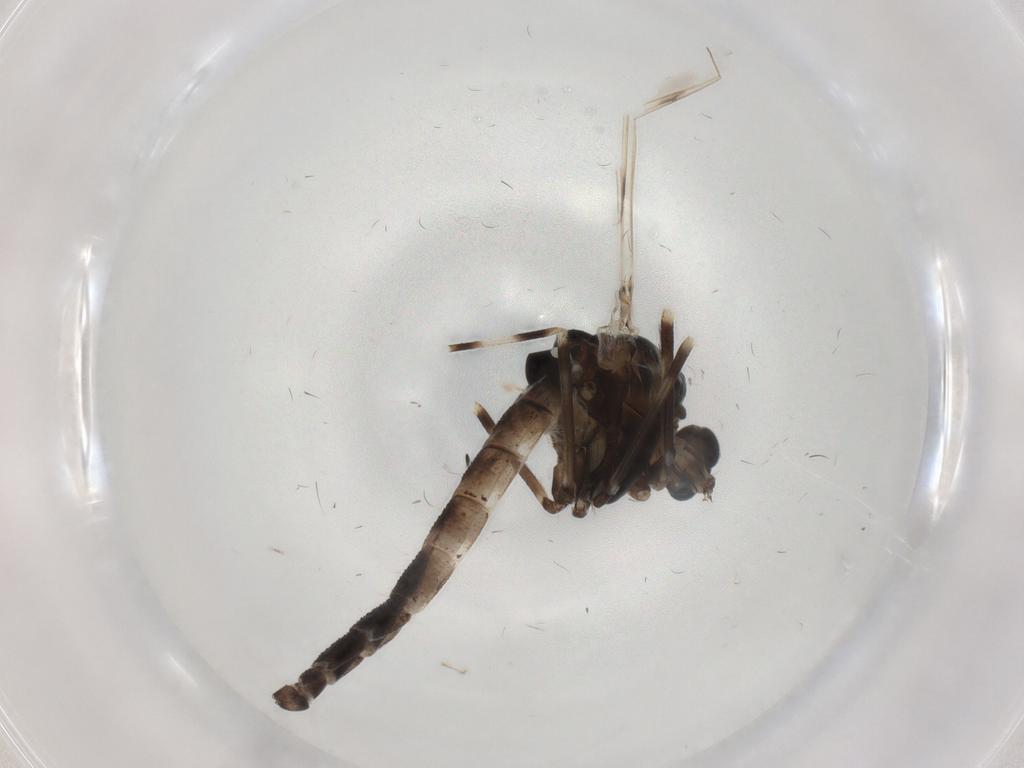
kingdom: Animalia
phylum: Arthropoda
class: Insecta
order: Diptera
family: Chironomidae
